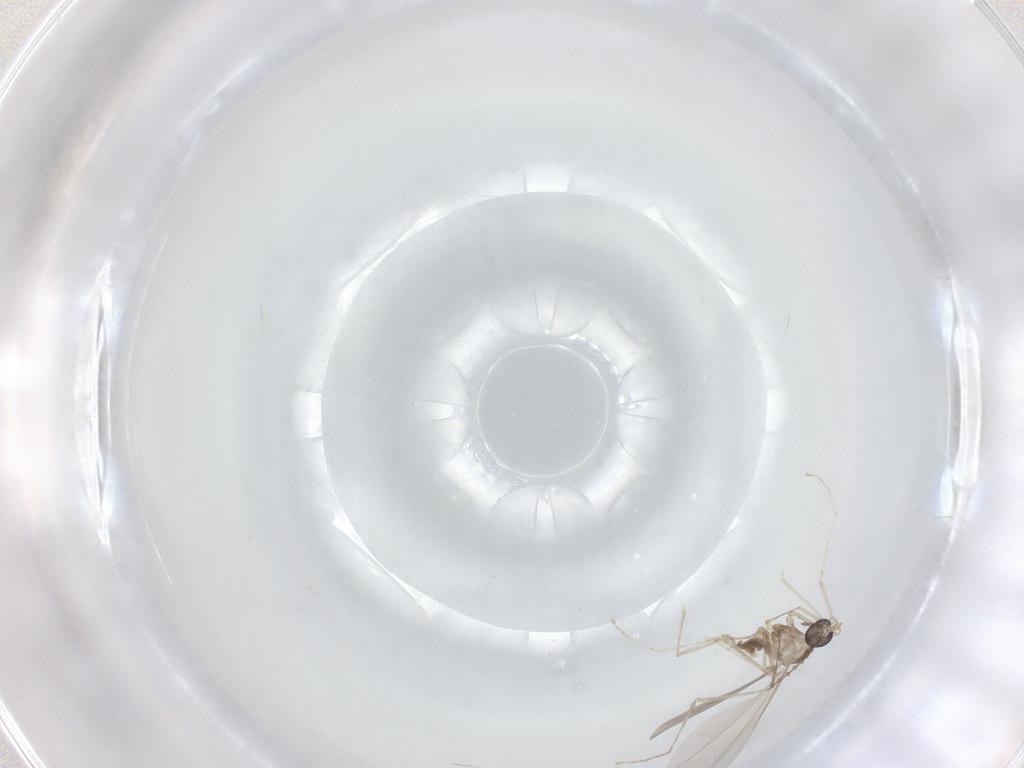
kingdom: Animalia
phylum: Arthropoda
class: Insecta
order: Diptera
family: Cecidomyiidae
